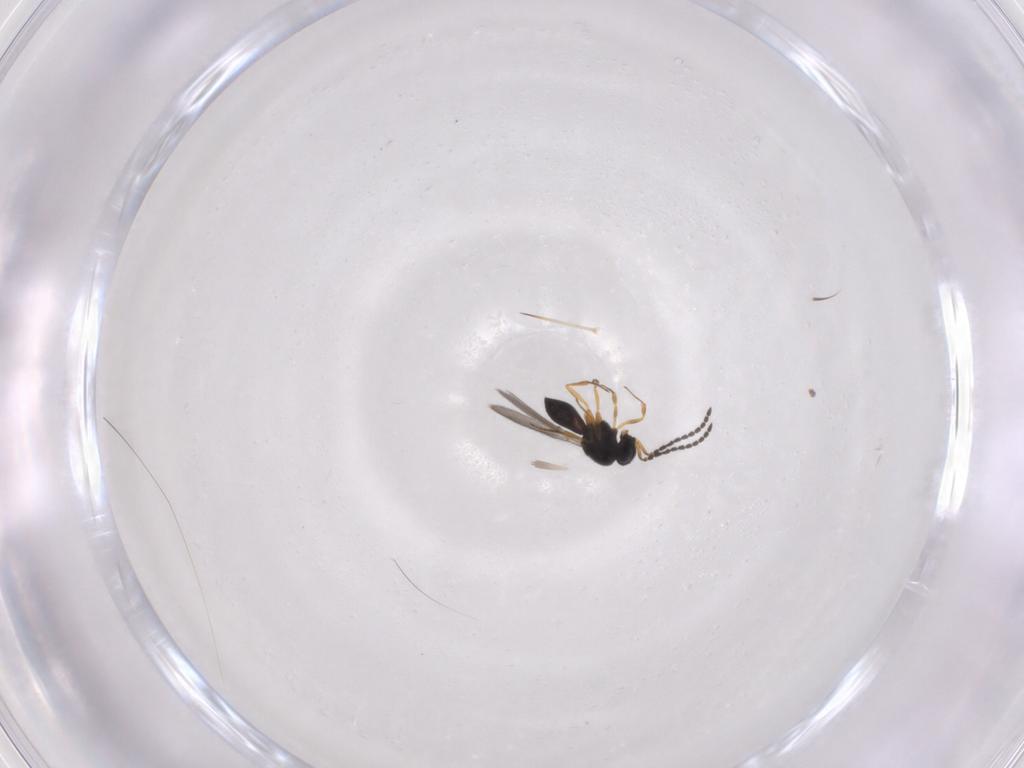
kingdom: Animalia
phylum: Arthropoda
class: Insecta
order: Hymenoptera
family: Scelionidae
